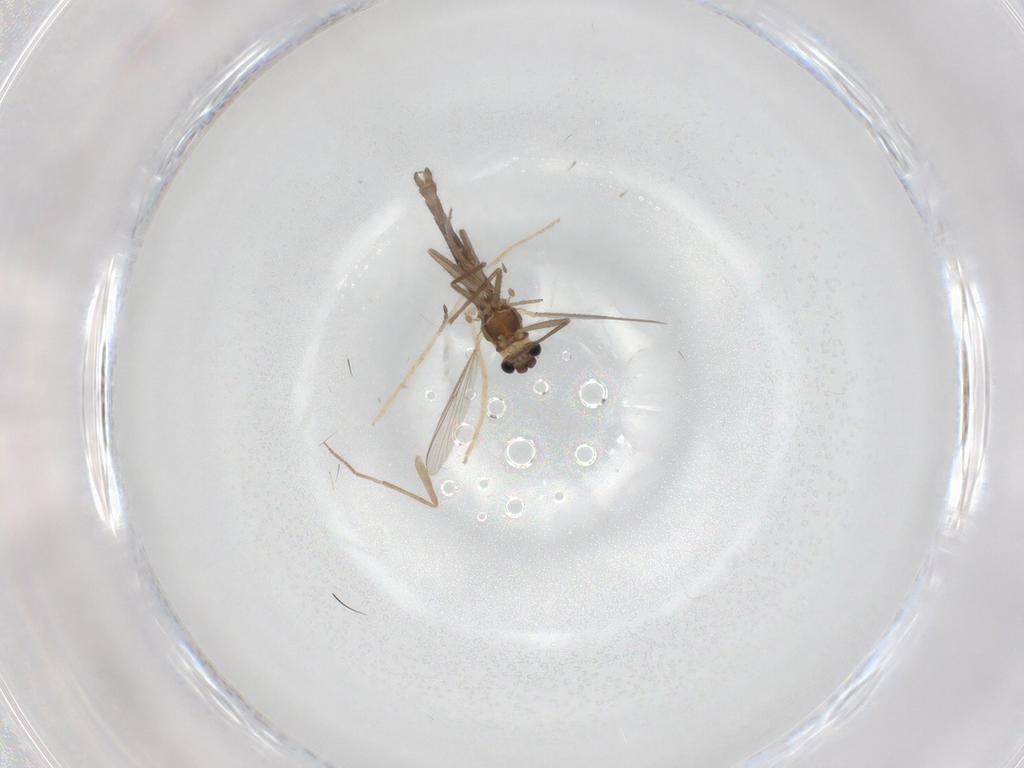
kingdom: Animalia
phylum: Arthropoda
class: Insecta
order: Diptera
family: Chironomidae
